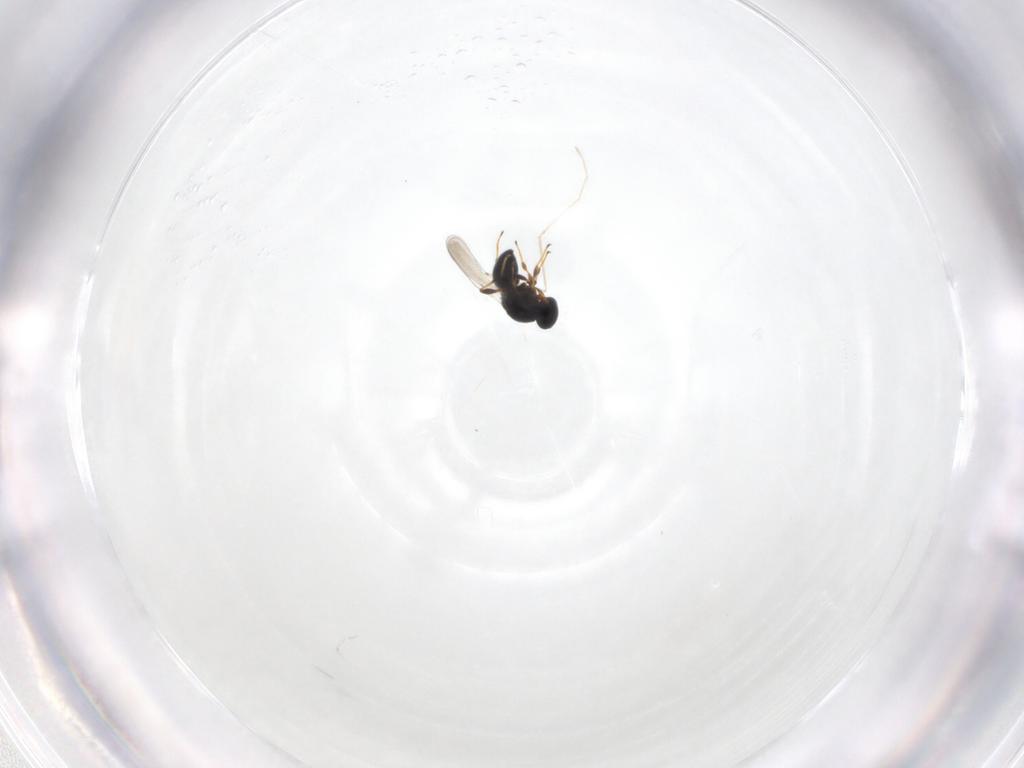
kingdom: Animalia
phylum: Arthropoda
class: Insecta
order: Hymenoptera
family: Platygastridae
